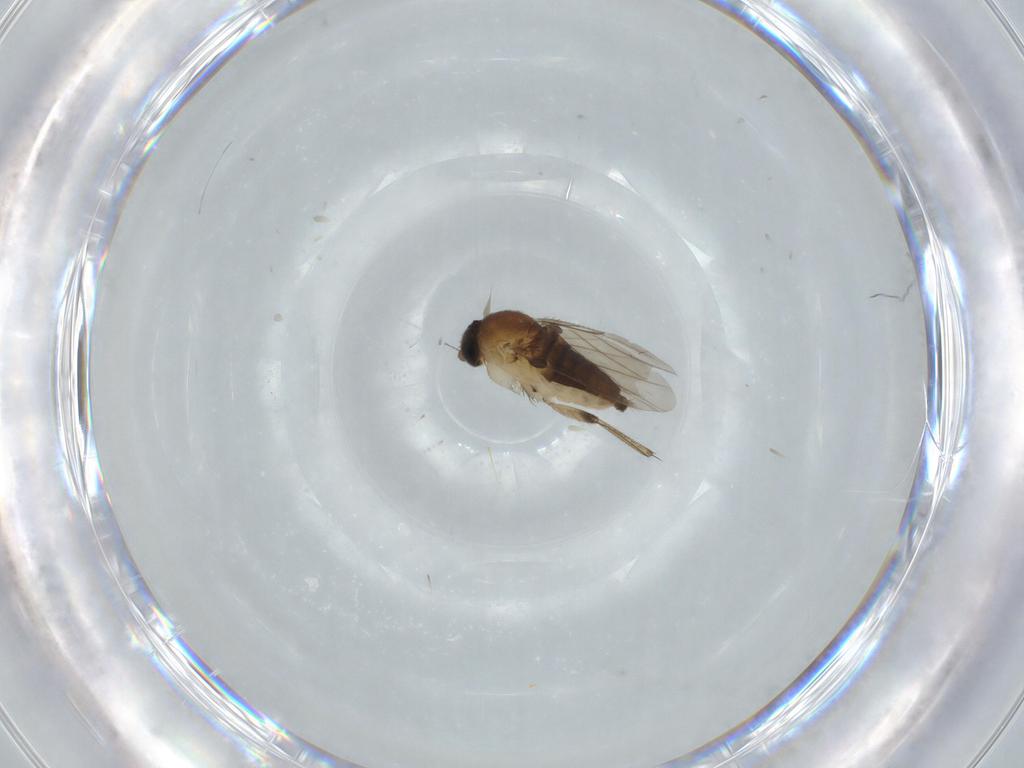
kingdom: Animalia
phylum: Arthropoda
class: Insecta
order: Diptera
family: Phoridae
